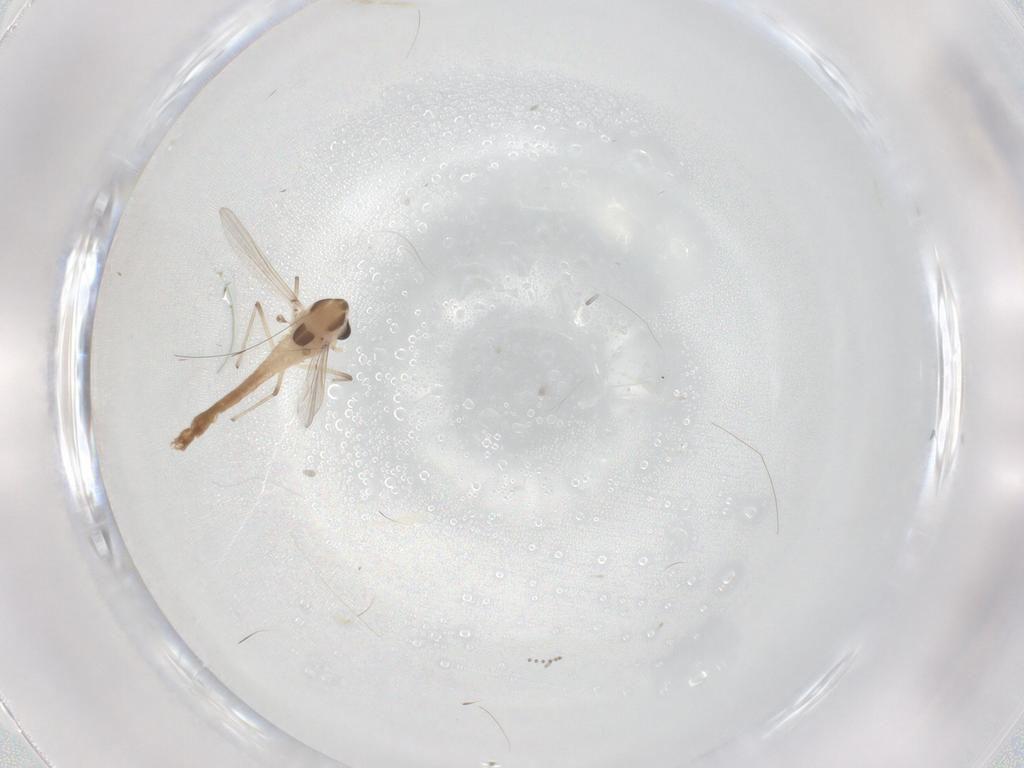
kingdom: Animalia
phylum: Arthropoda
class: Insecta
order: Diptera
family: Chironomidae
